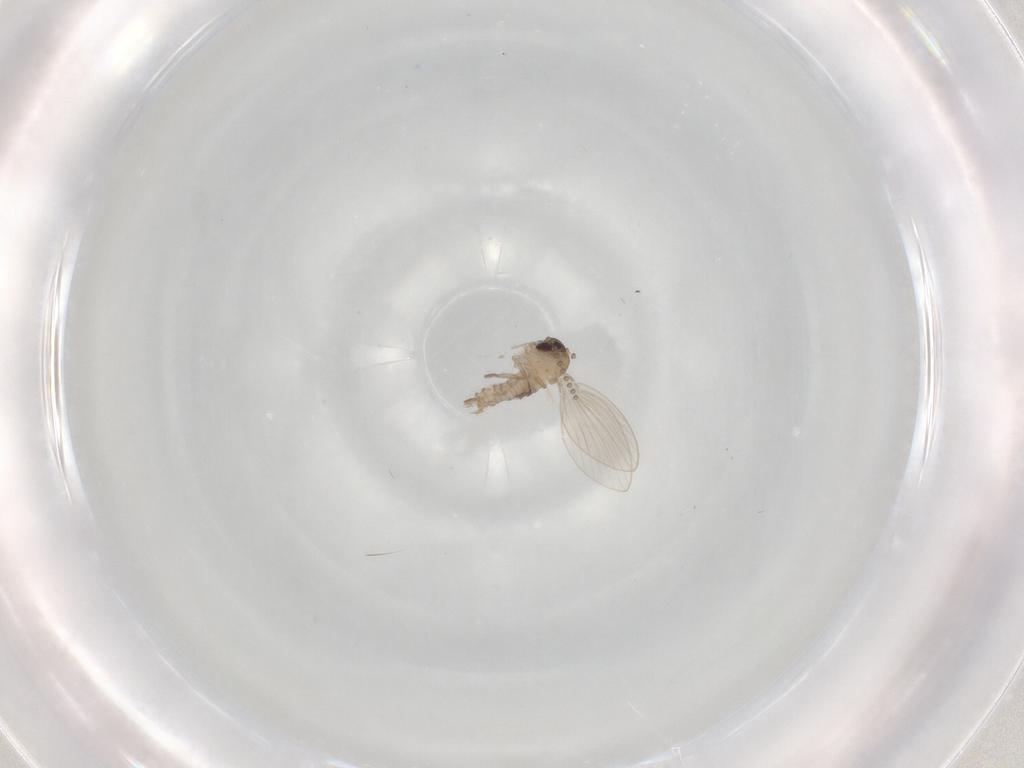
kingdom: Animalia
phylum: Arthropoda
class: Insecta
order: Diptera
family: Psychodidae
